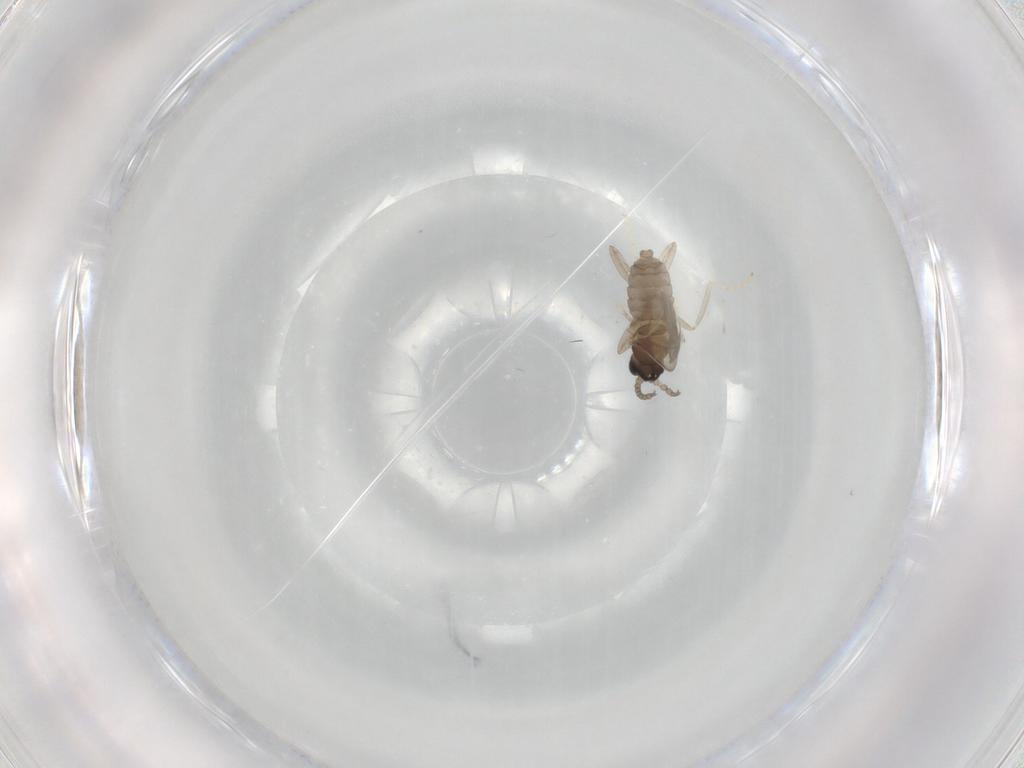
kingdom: Animalia
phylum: Arthropoda
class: Insecta
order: Diptera
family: Cecidomyiidae
